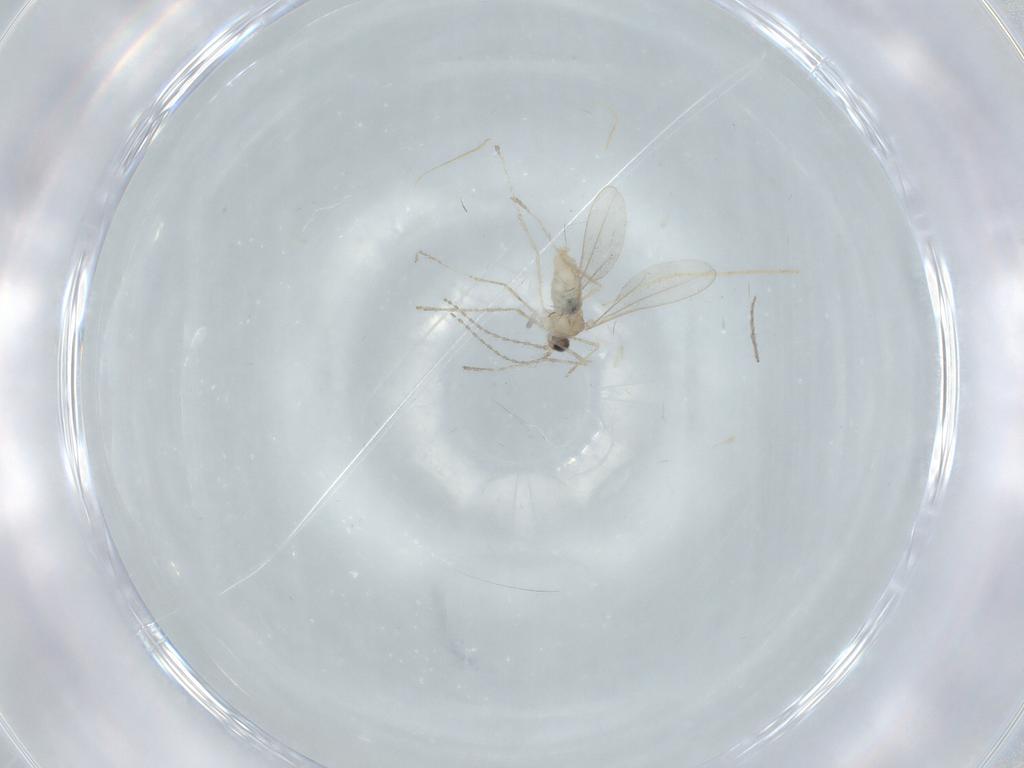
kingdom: Animalia
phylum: Arthropoda
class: Insecta
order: Diptera
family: Cecidomyiidae
